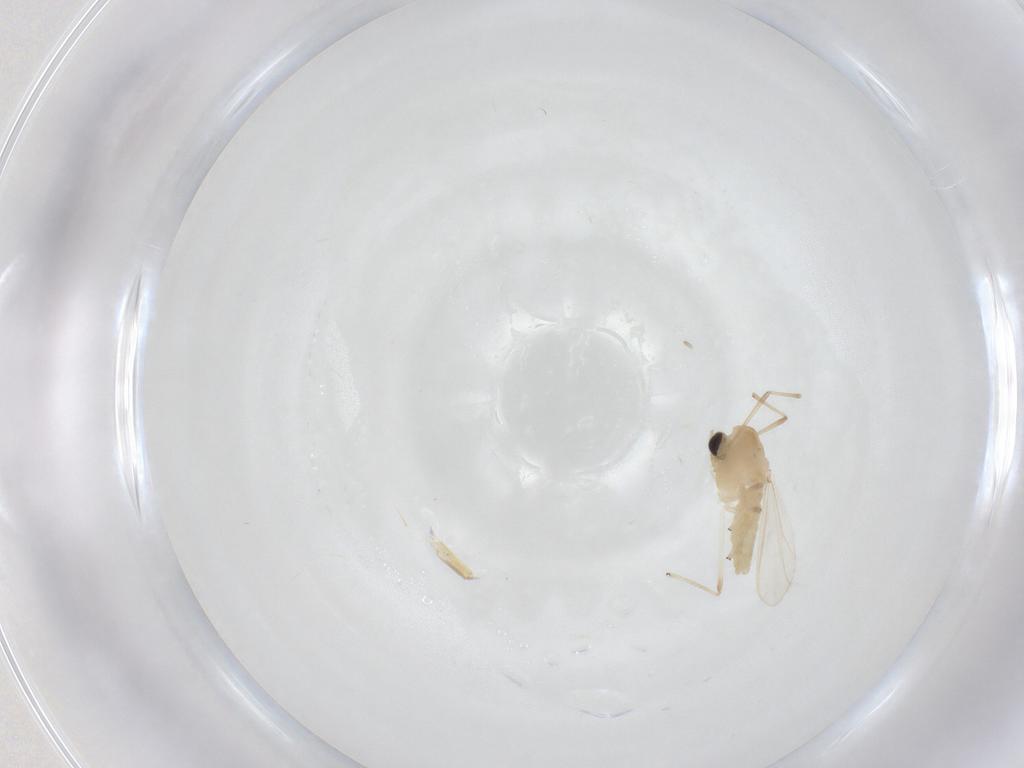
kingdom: Animalia
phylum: Arthropoda
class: Insecta
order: Diptera
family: Chironomidae
